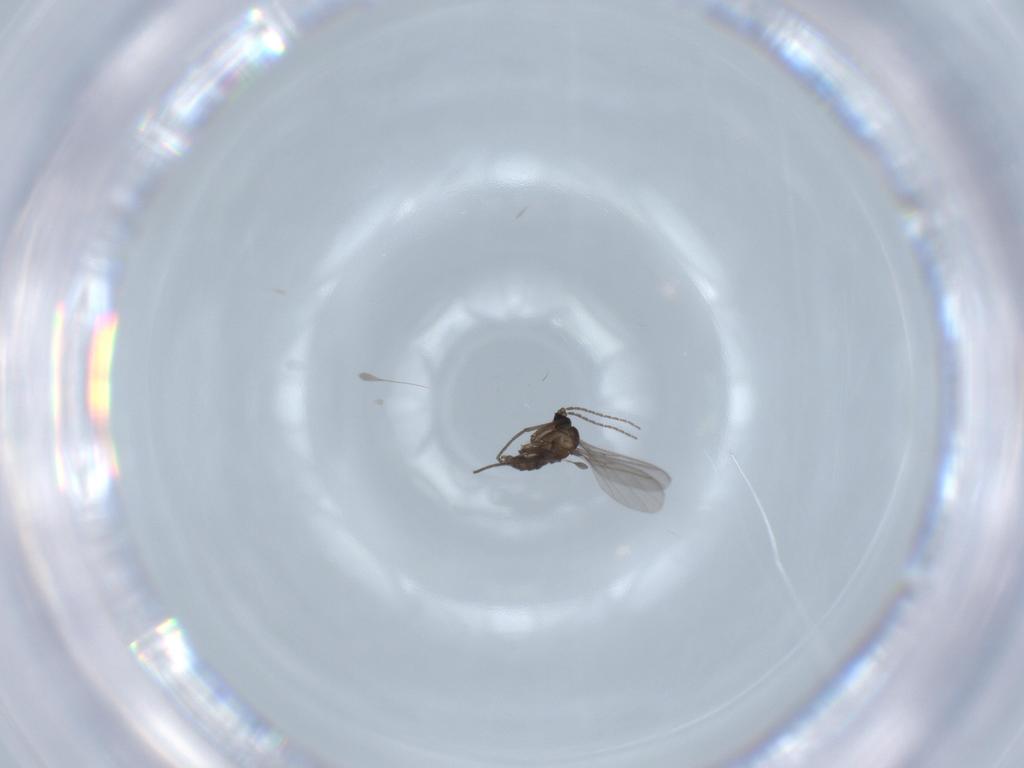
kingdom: Animalia
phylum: Arthropoda
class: Insecta
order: Diptera
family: Sciaridae
